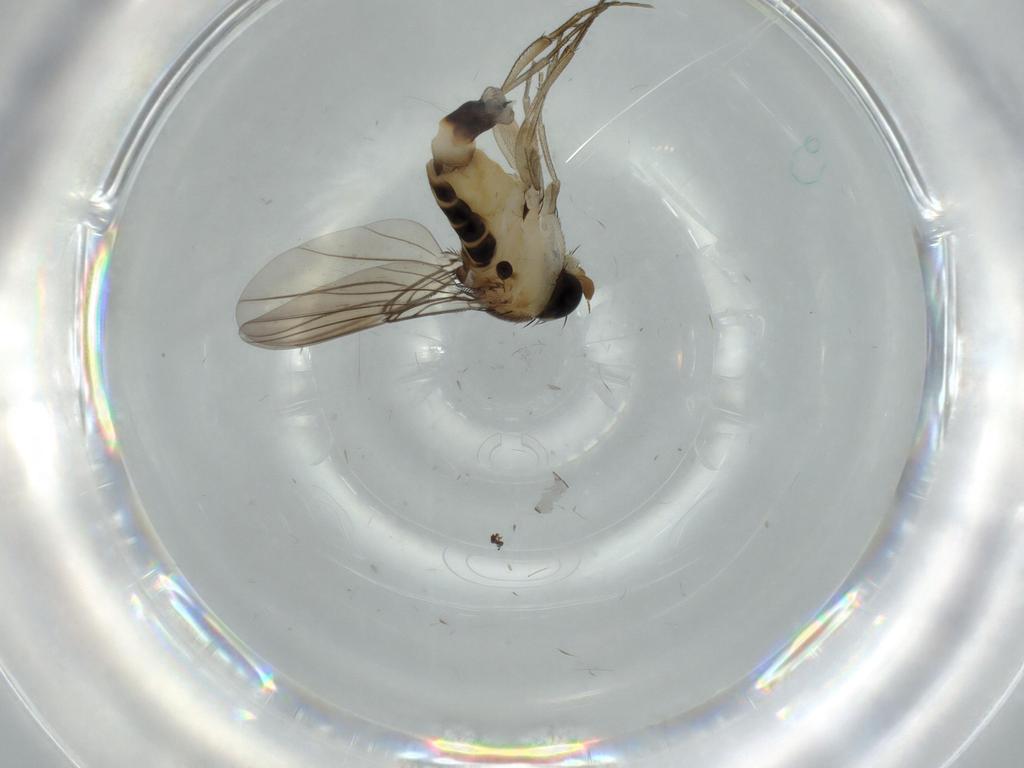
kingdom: Animalia
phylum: Arthropoda
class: Insecta
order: Diptera
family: Phoridae
